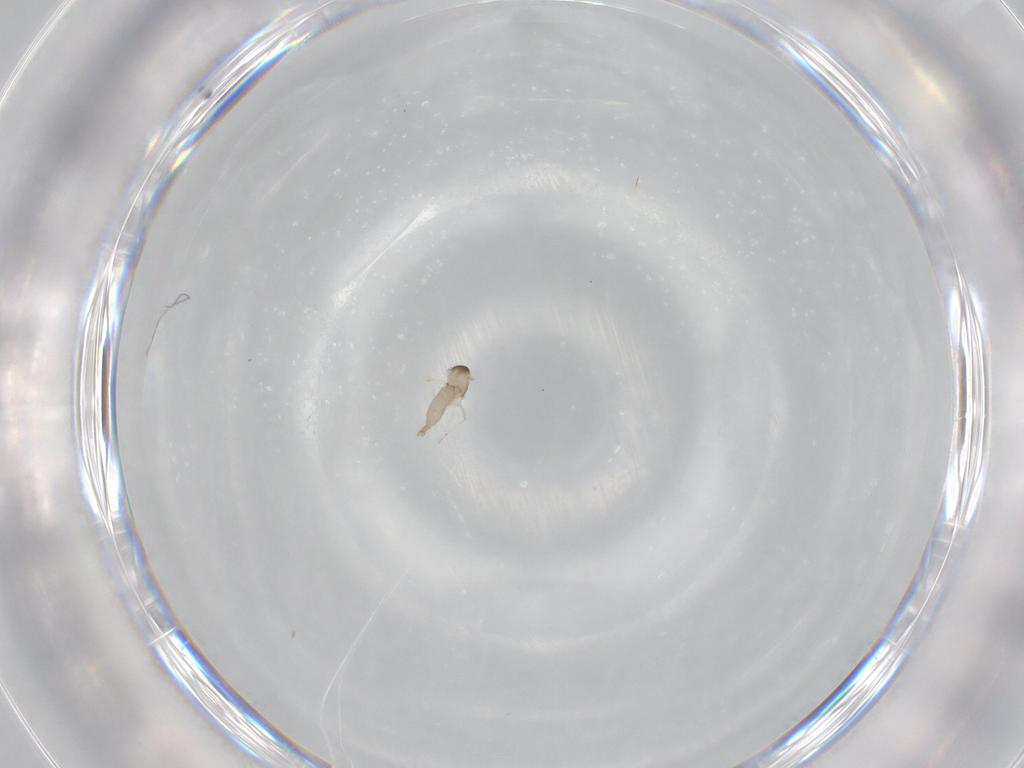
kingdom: Animalia
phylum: Arthropoda
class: Insecta
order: Diptera
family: Cecidomyiidae
